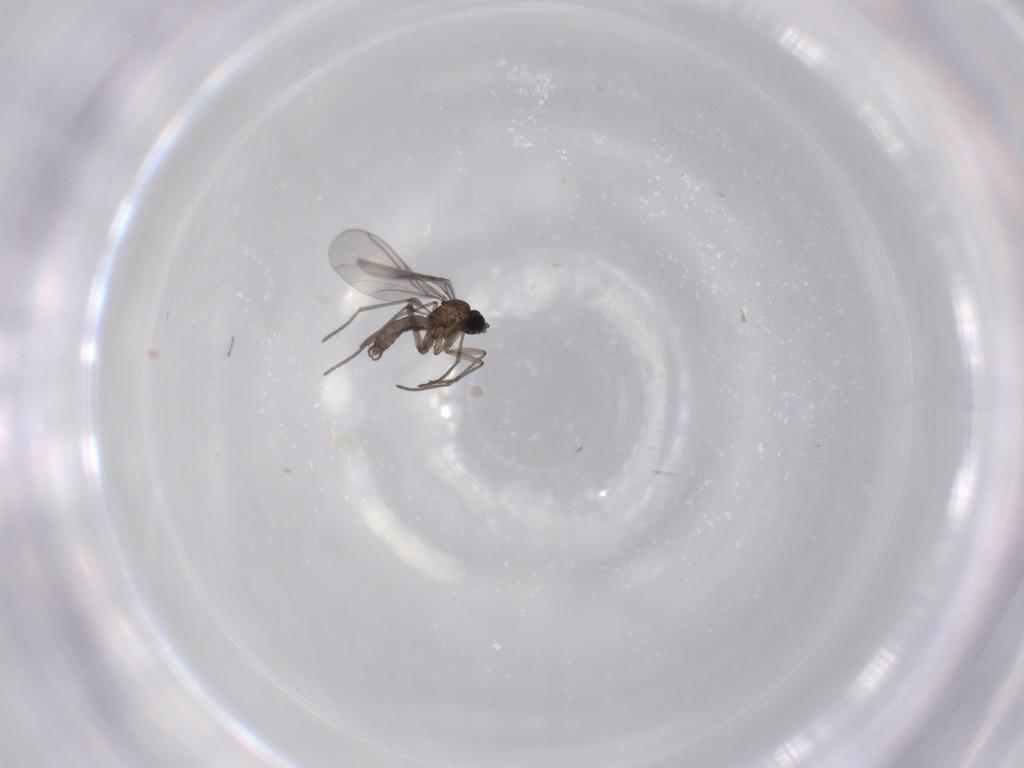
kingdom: Animalia
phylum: Arthropoda
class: Insecta
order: Diptera
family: Sciaridae
